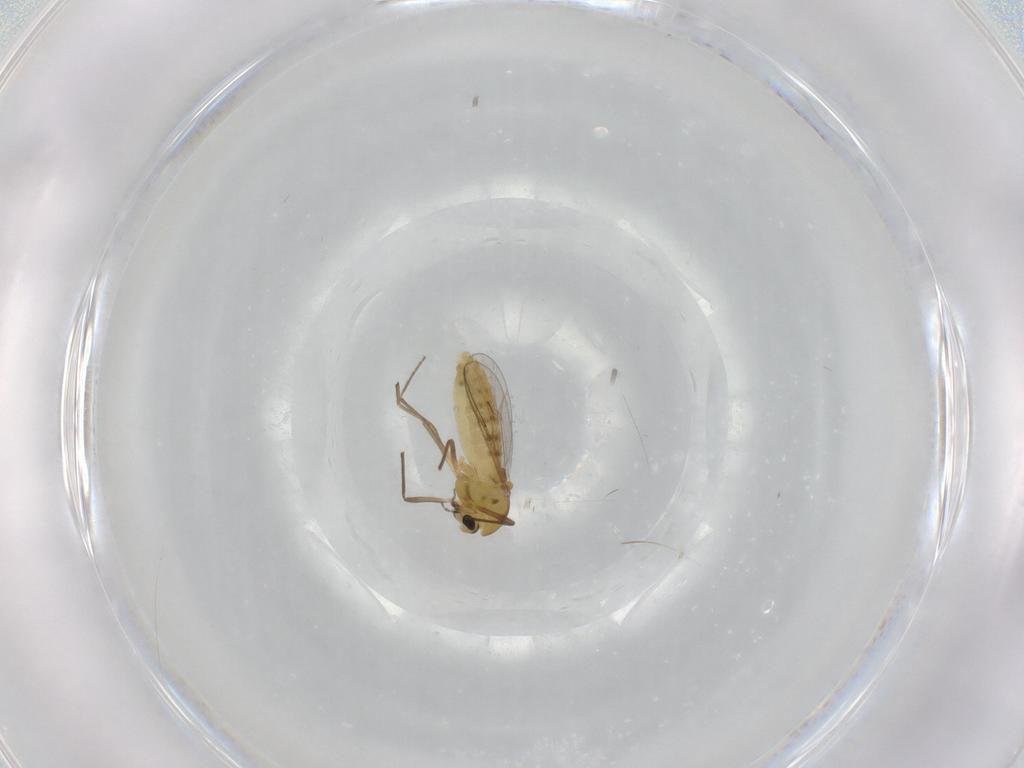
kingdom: Animalia
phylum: Arthropoda
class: Insecta
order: Diptera
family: Chironomidae
